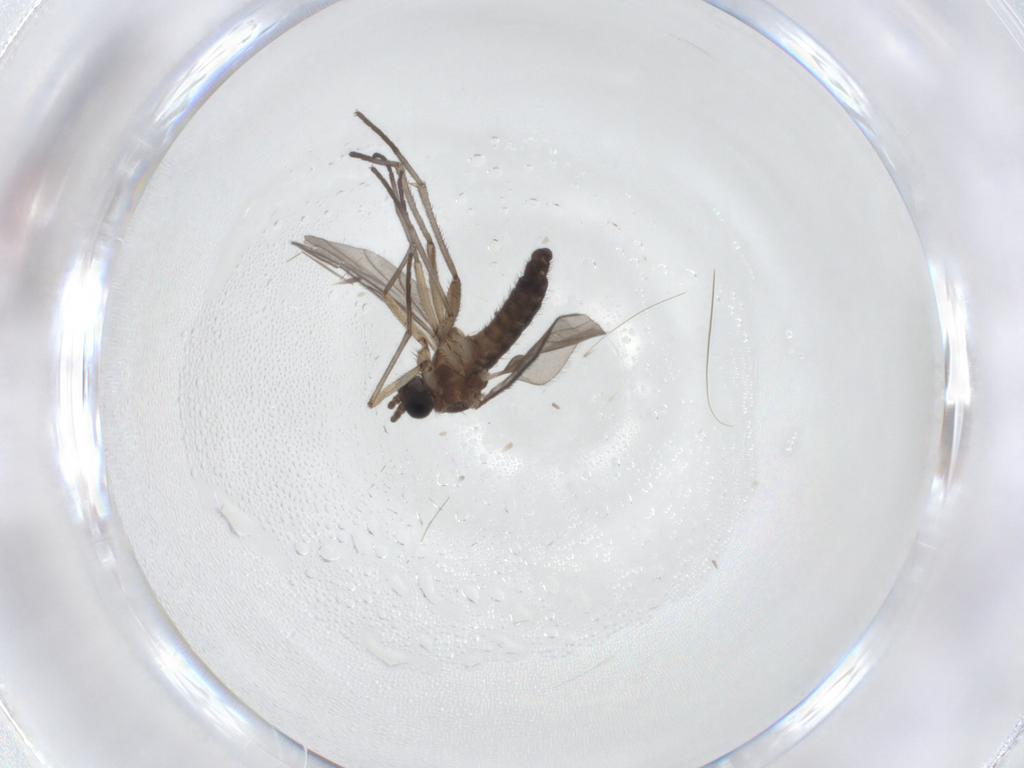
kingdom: Animalia
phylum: Arthropoda
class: Insecta
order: Diptera
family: Sciaridae
